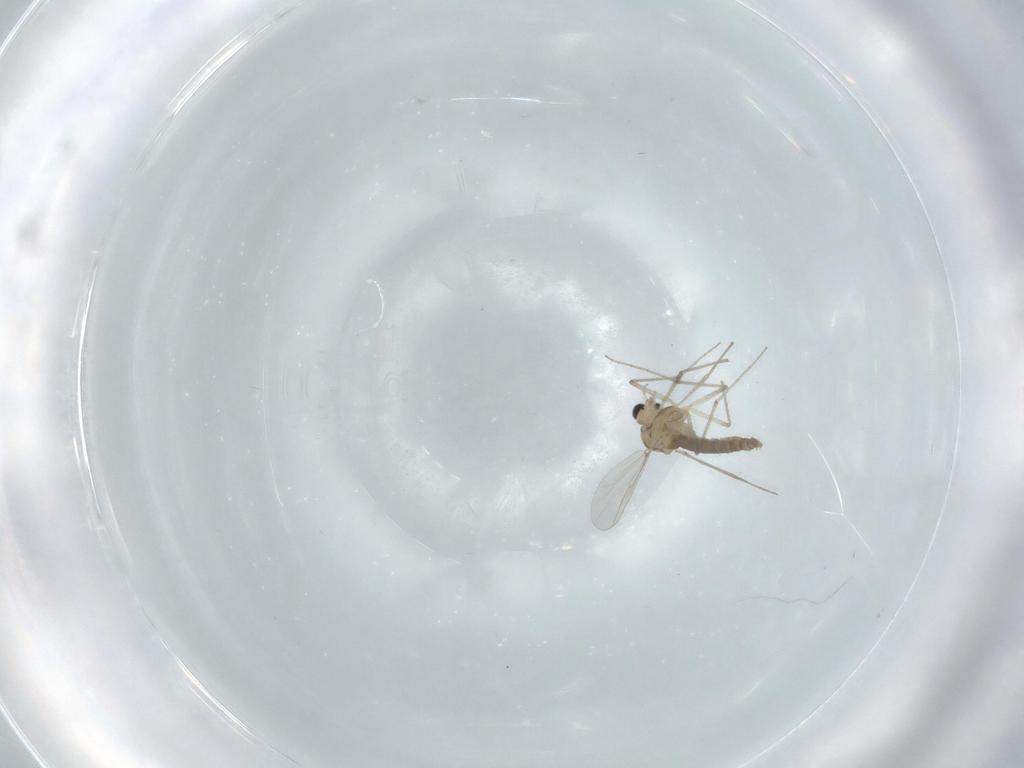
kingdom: Animalia
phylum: Arthropoda
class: Insecta
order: Diptera
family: Chironomidae
